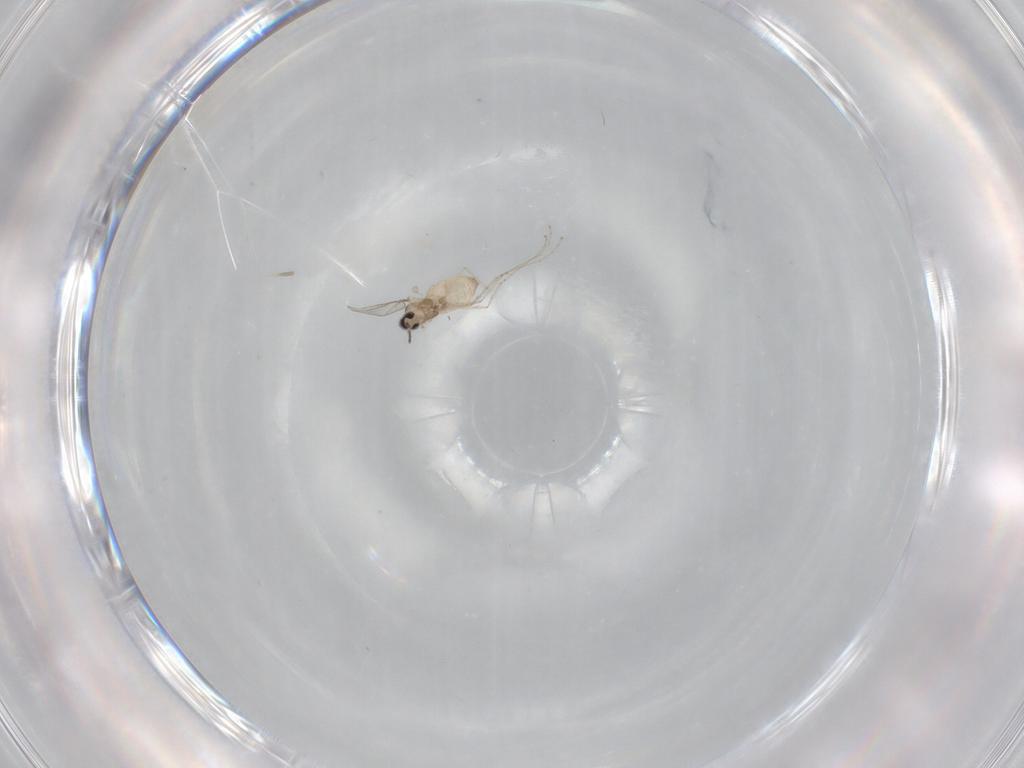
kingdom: Animalia
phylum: Arthropoda
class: Insecta
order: Diptera
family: Cecidomyiidae
